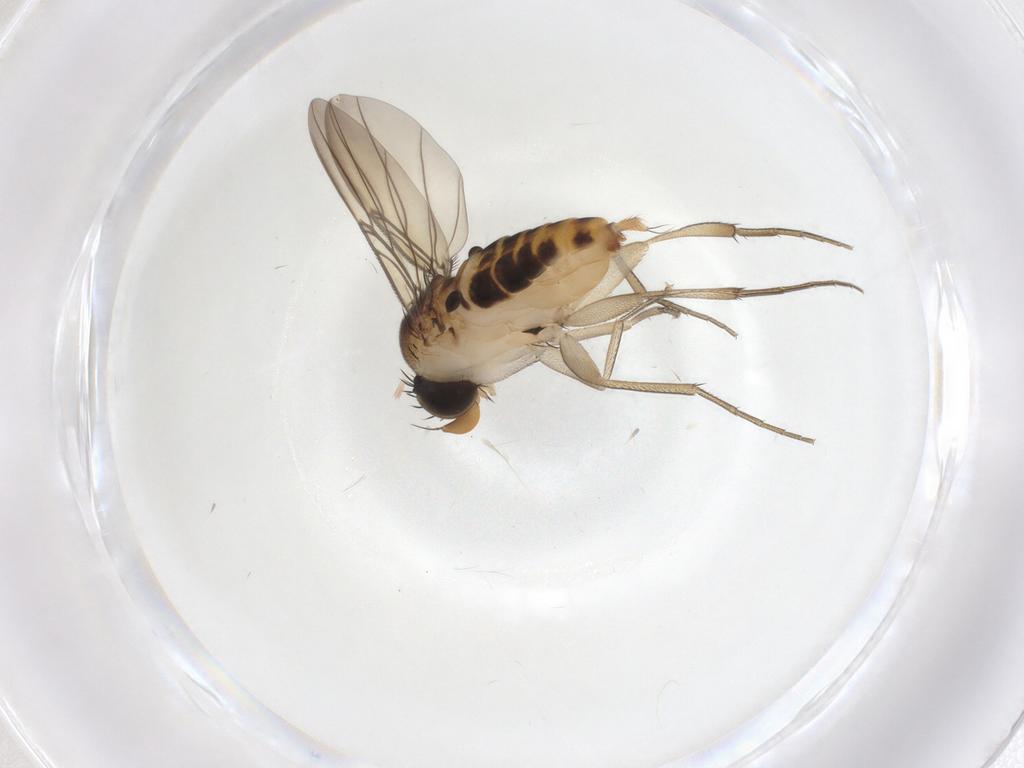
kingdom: Animalia
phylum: Arthropoda
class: Insecta
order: Diptera
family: Phoridae
